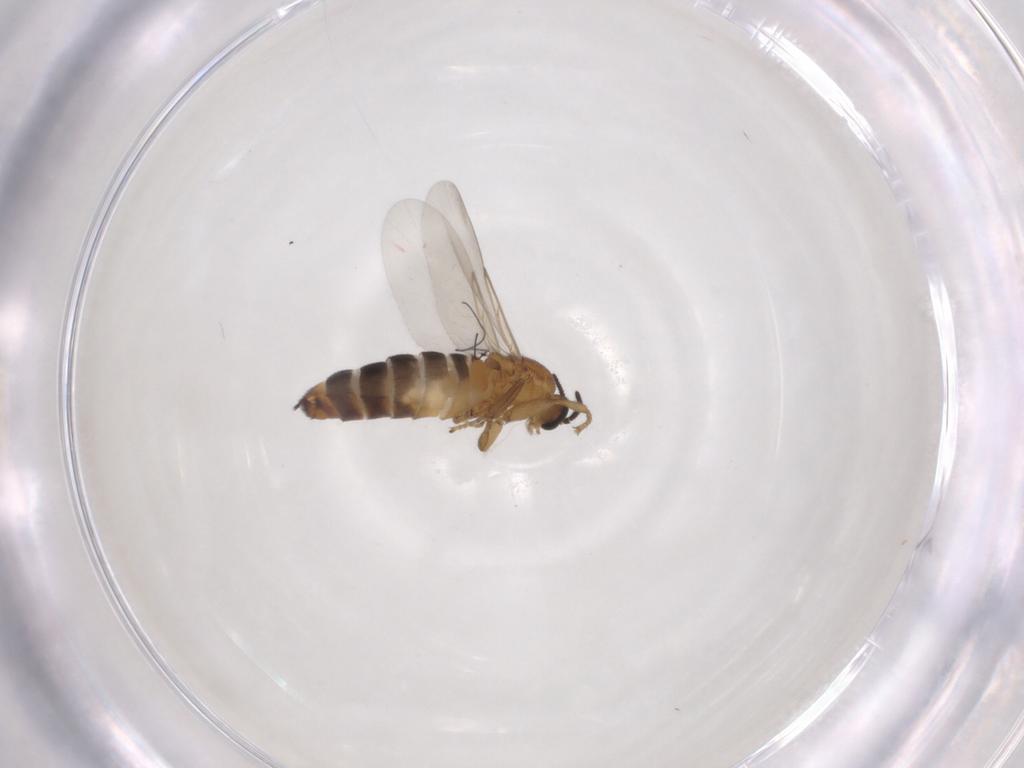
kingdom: Animalia
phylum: Arthropoda
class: Insecta
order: Diptera
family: Scatopsidae
